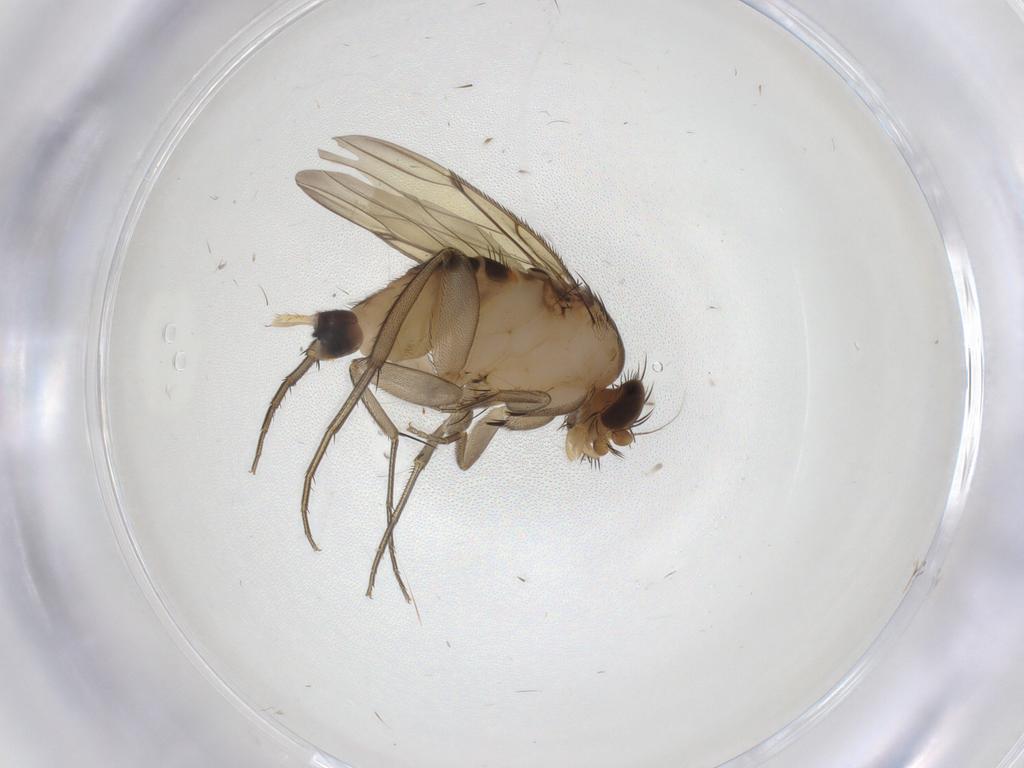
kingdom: Animalia
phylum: Arthropoda
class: Insecta
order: Diptera
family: Phoridae
